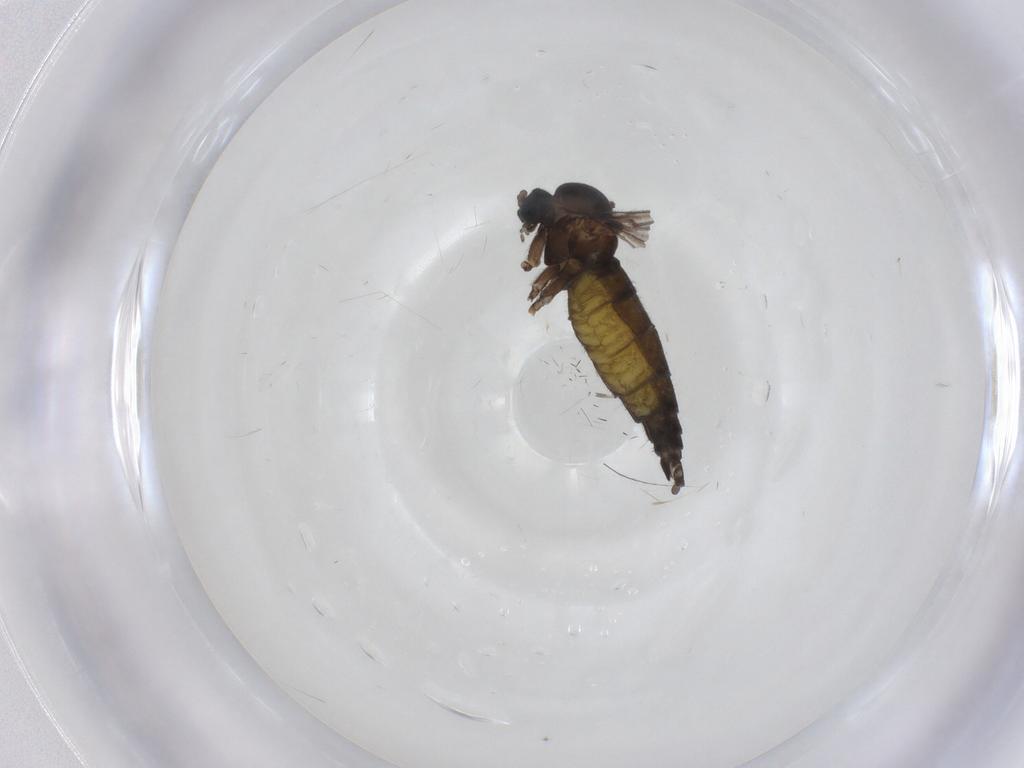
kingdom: Animalia
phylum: Arthropoda
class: Insecta
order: Diptera
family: Sciaridae
